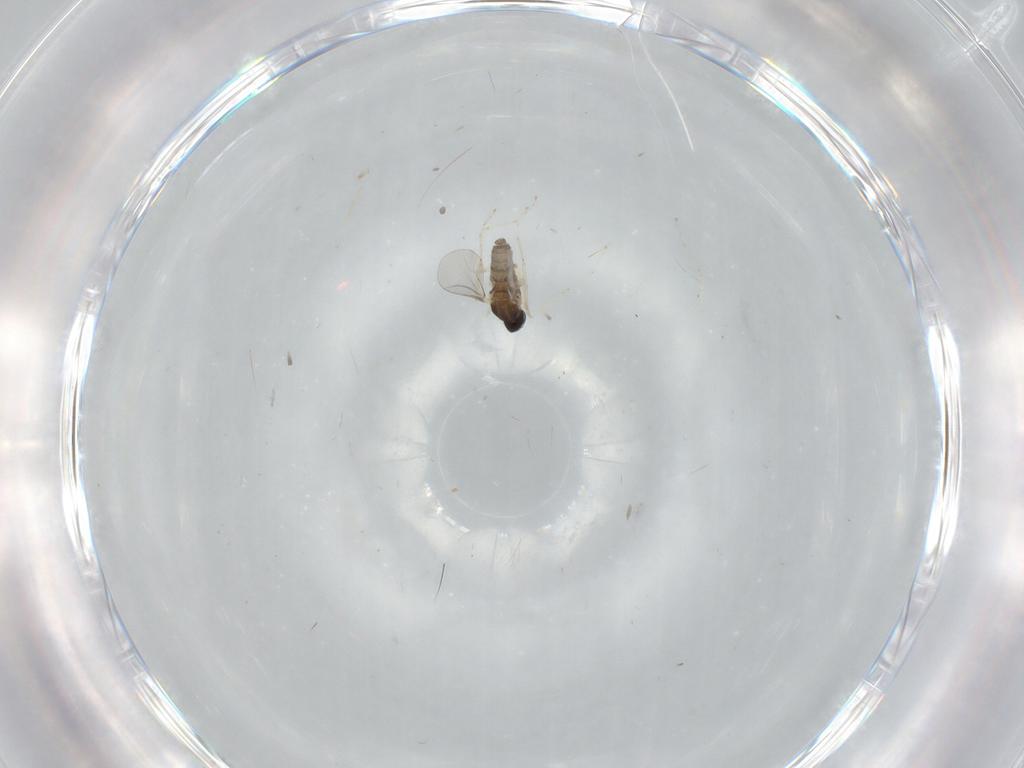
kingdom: Animalia
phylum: Arthropoda
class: Insecta
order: Diptera
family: Cecidomyiidae
